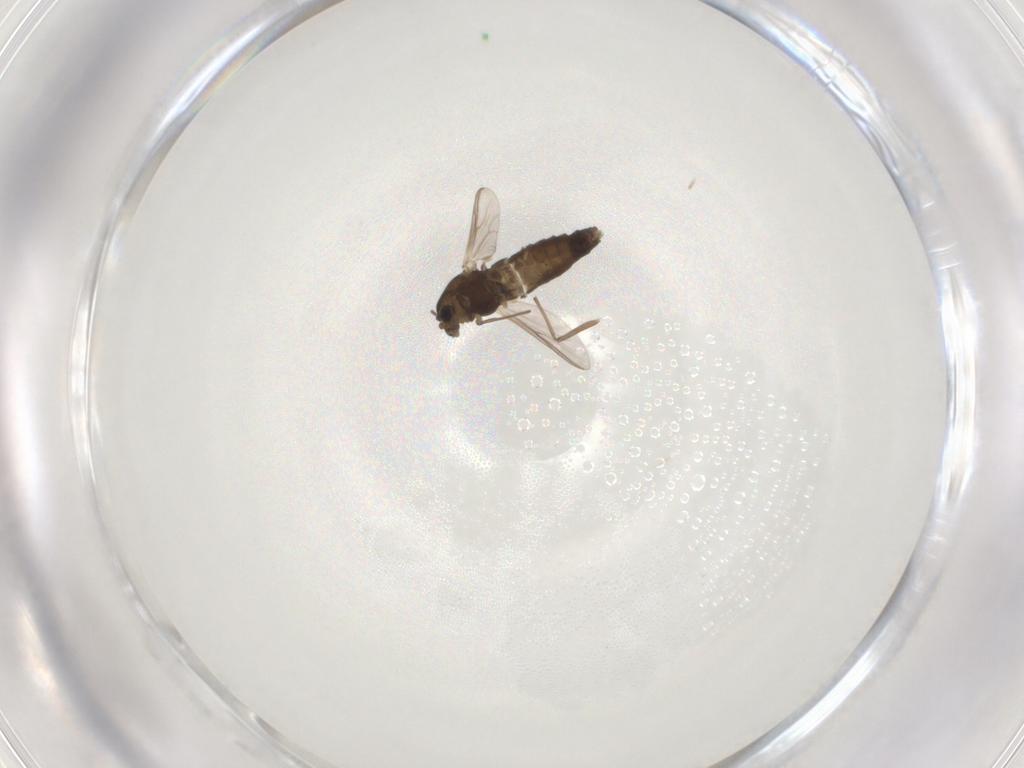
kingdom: Animalia
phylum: Arthropoda
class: Insecta
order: Diptera
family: Chironomidae
